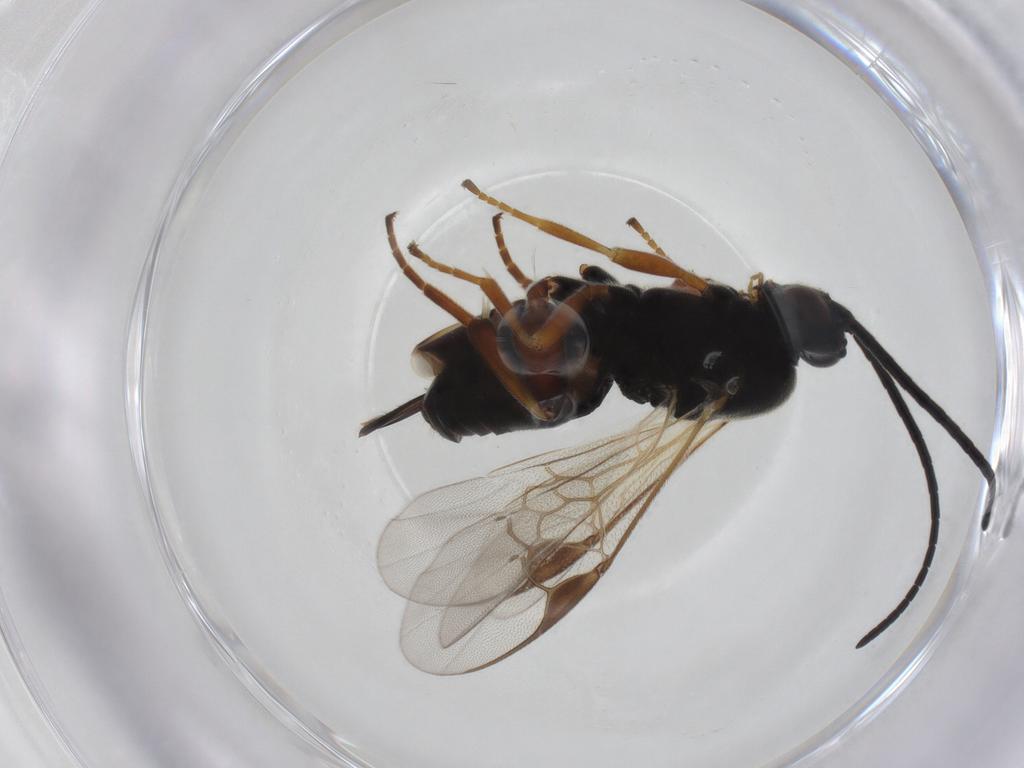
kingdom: Animalia
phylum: Arthropoda
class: Insecta
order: Hymenoptera
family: Braconidae
